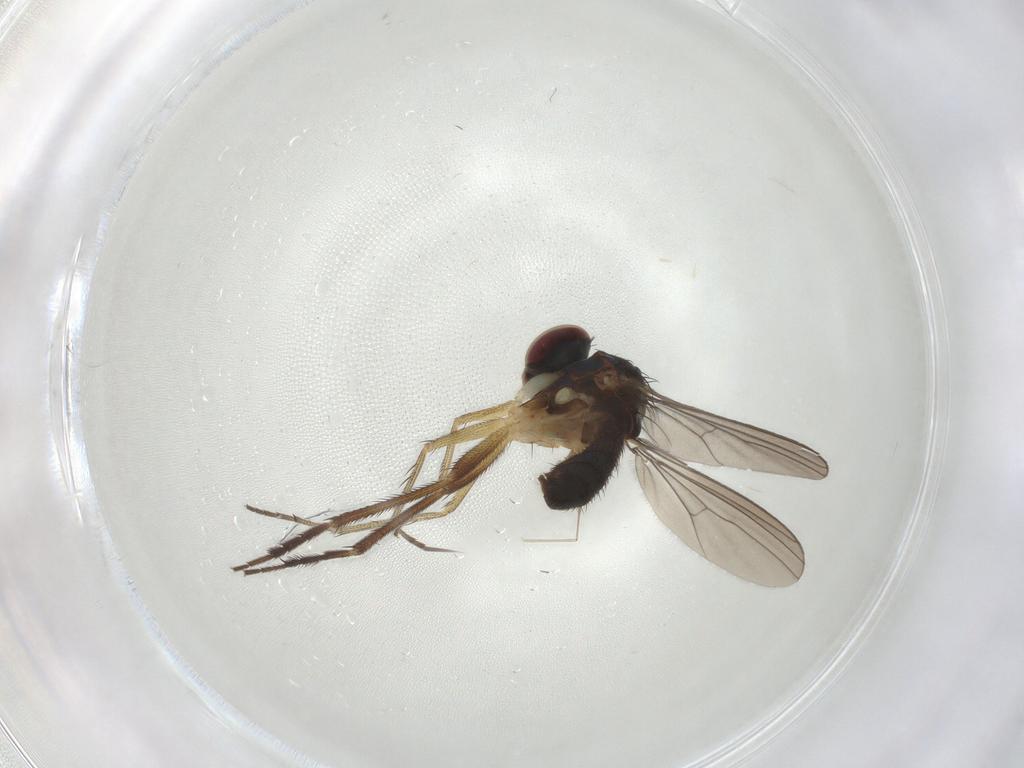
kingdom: Animalia
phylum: Arthropoda
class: Insecta
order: Diptera
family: Dolichopodidae
